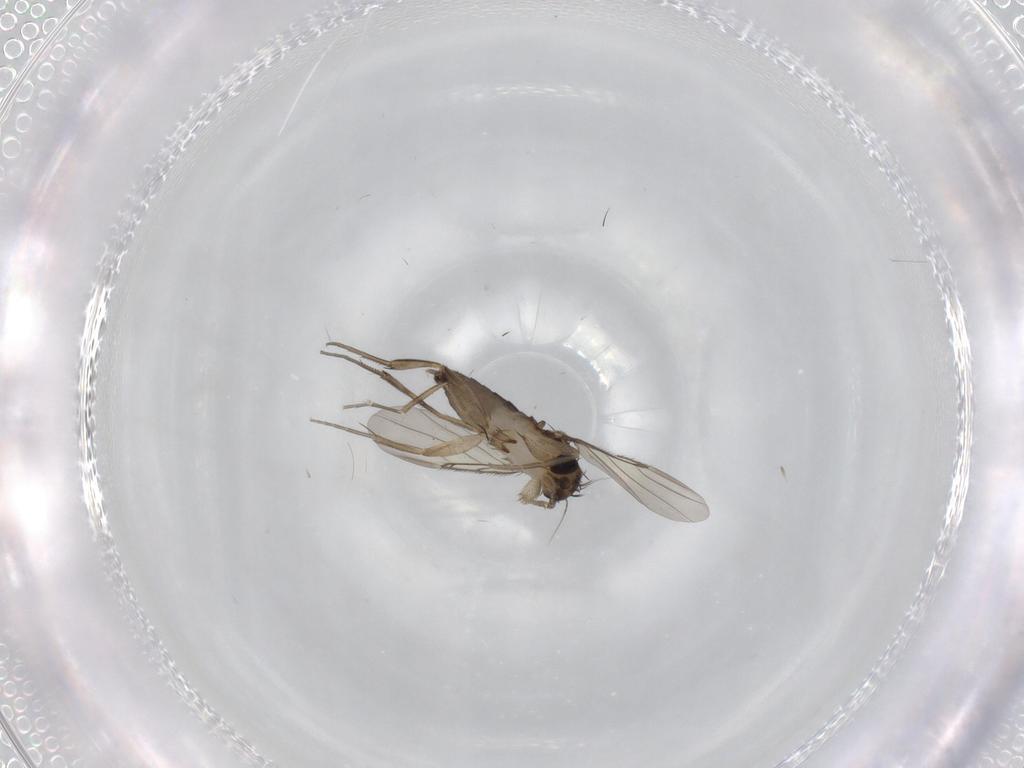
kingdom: Animalia
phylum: Arthropoda
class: Insecta
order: Diptera
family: Phoridae
